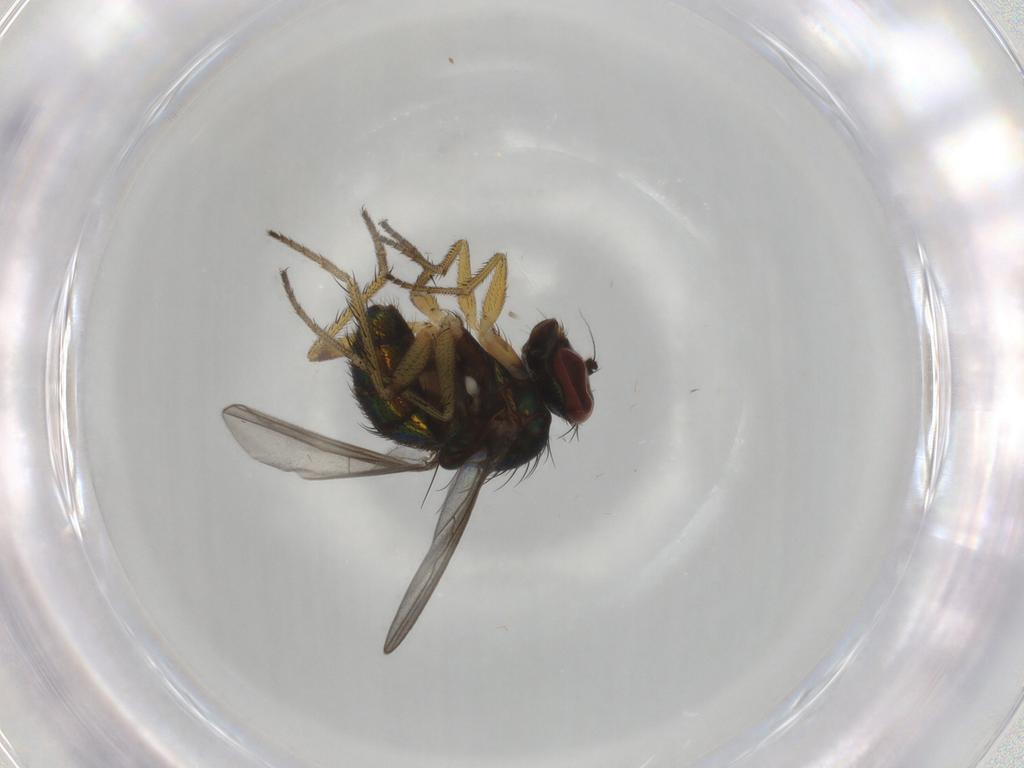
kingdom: Animalia
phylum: Arthropoda
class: Insecta
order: Diptera
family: Dolichopodidae
